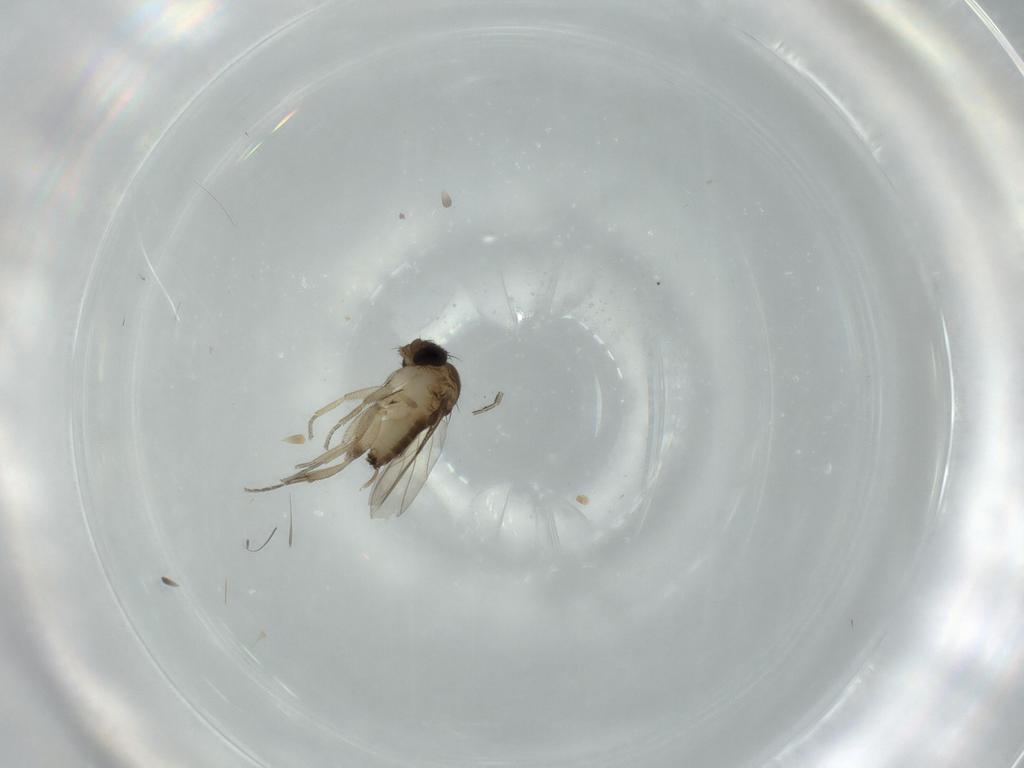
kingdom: Animalia
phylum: Arthropoda
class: Insecta
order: Diptera
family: Phoridae
